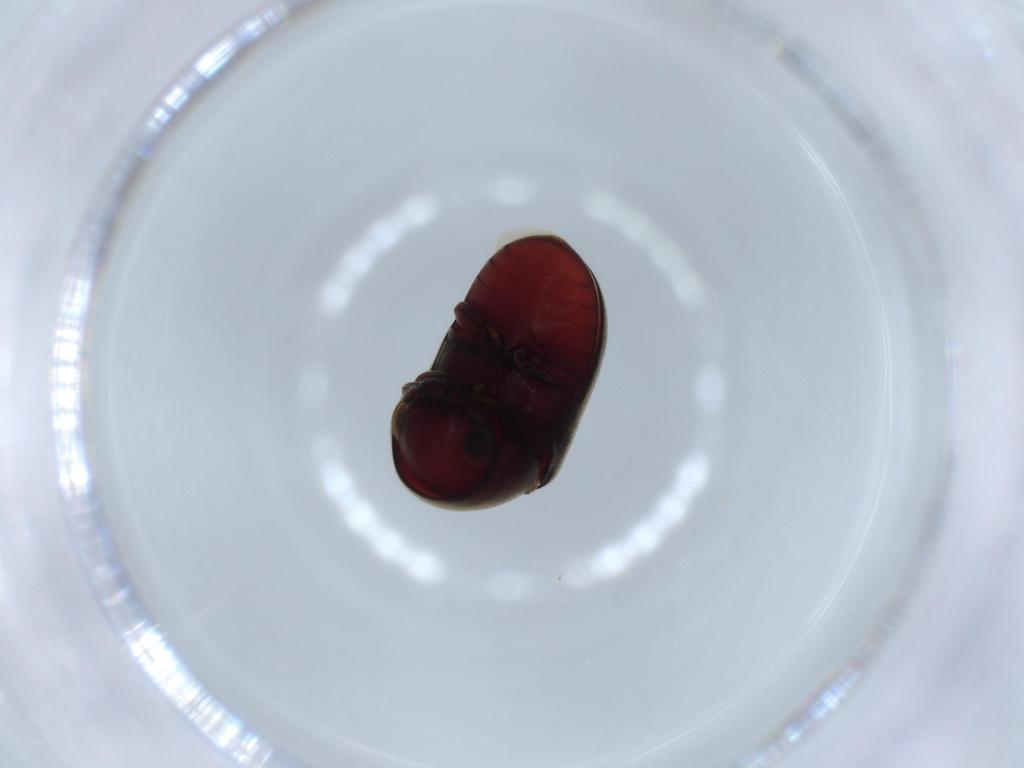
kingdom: Animalia
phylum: Arthropoda
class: Insecta
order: Coleoptera
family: Ptinidae
